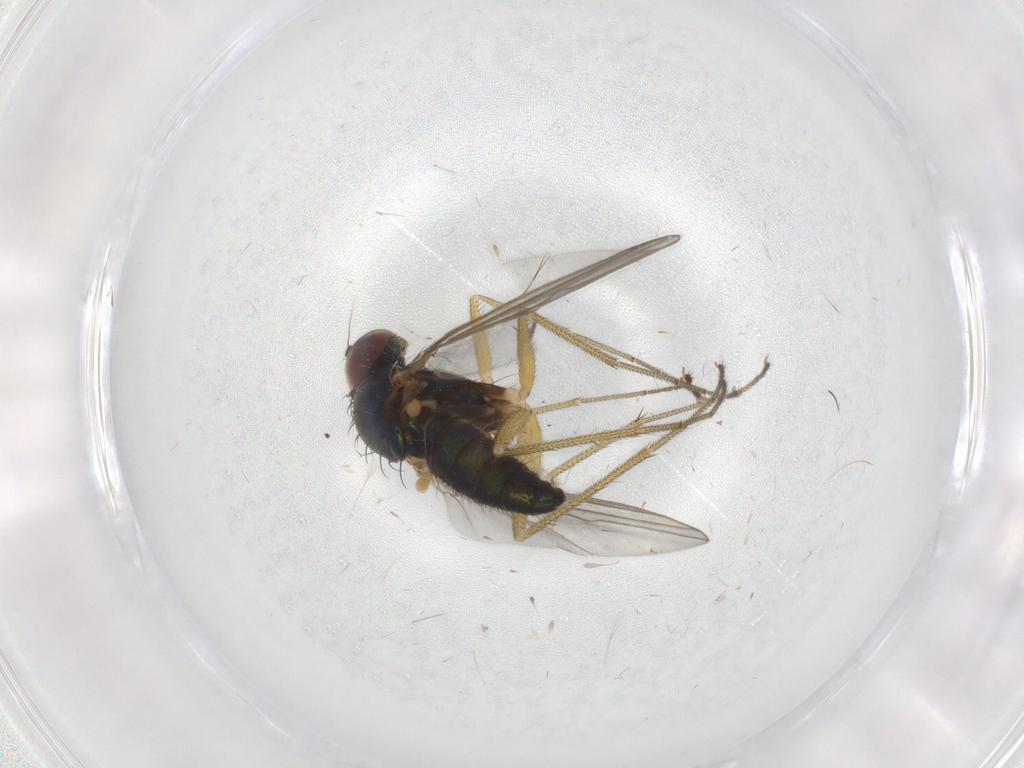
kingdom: Animalia
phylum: Arthropoda
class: Insecta
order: Diptera
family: Dolichopodidae
